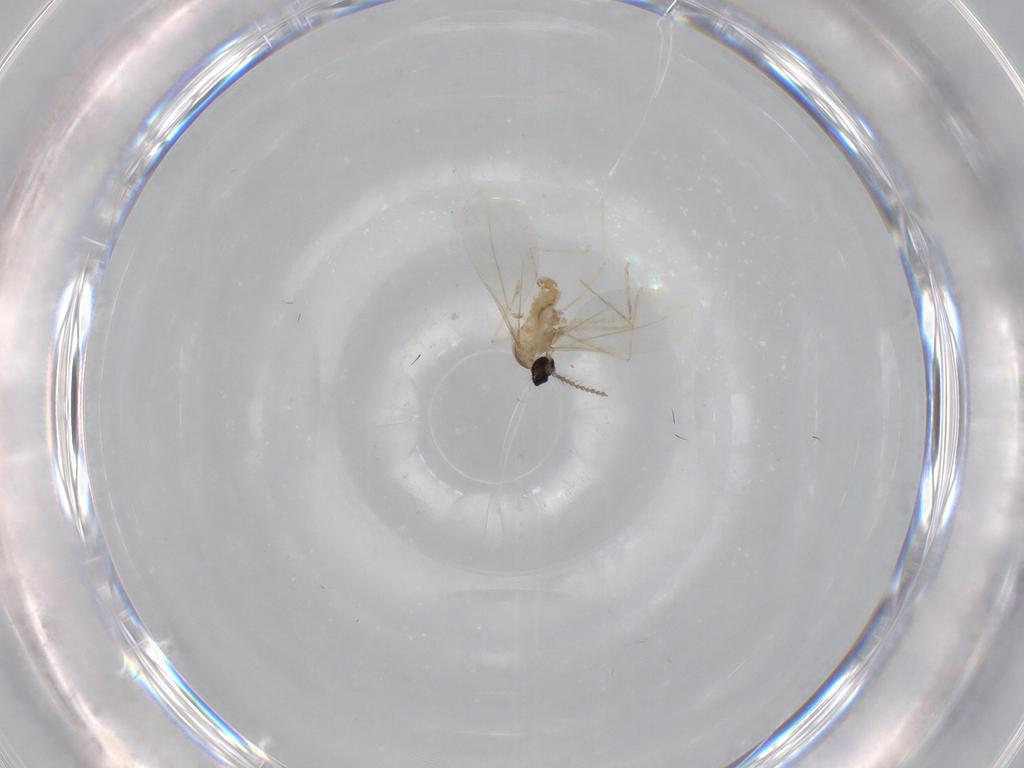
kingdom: Animalia
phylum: Arthropoda
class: Insecta
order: Diptera
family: Cecidomyiidae
